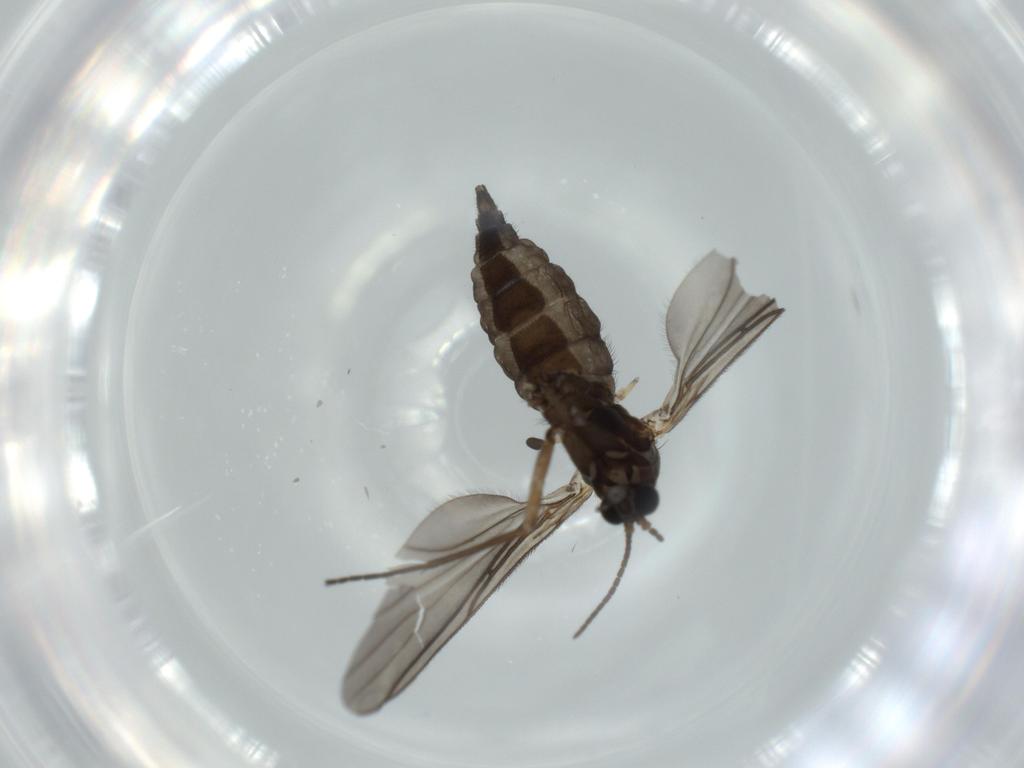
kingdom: Animalia
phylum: Arthropoda
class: Insecta
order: Diptera
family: Sciaridae
